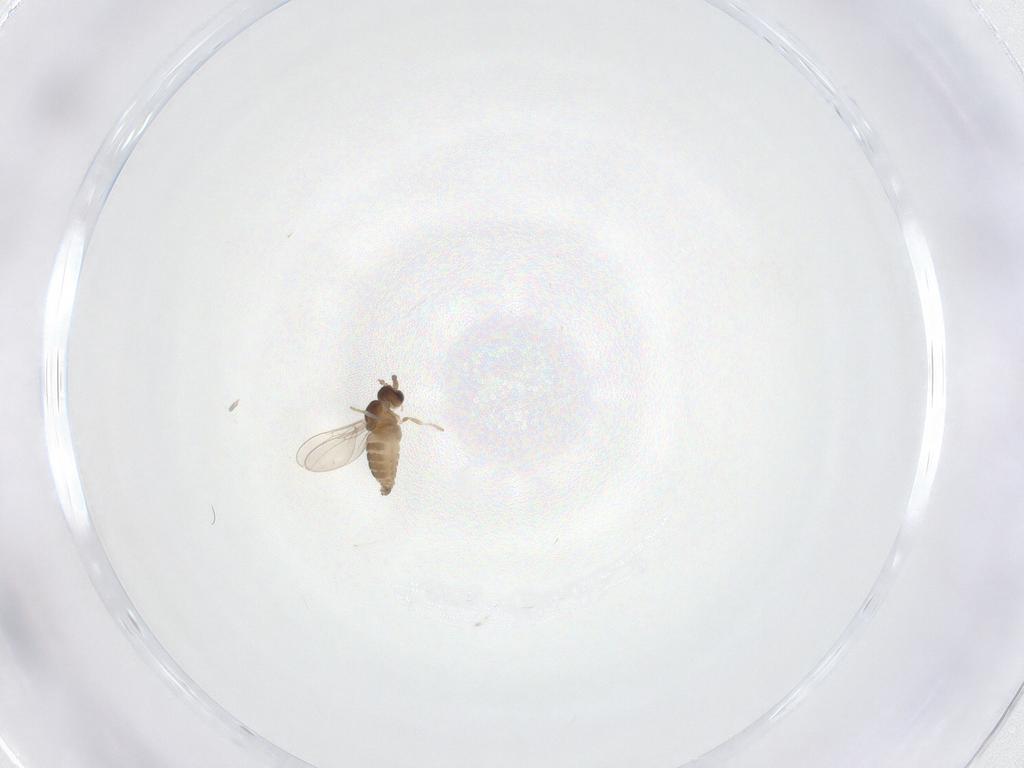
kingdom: Animalia
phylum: Arthropoda
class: Insecta
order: Diptera
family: Cecidomyiidae
